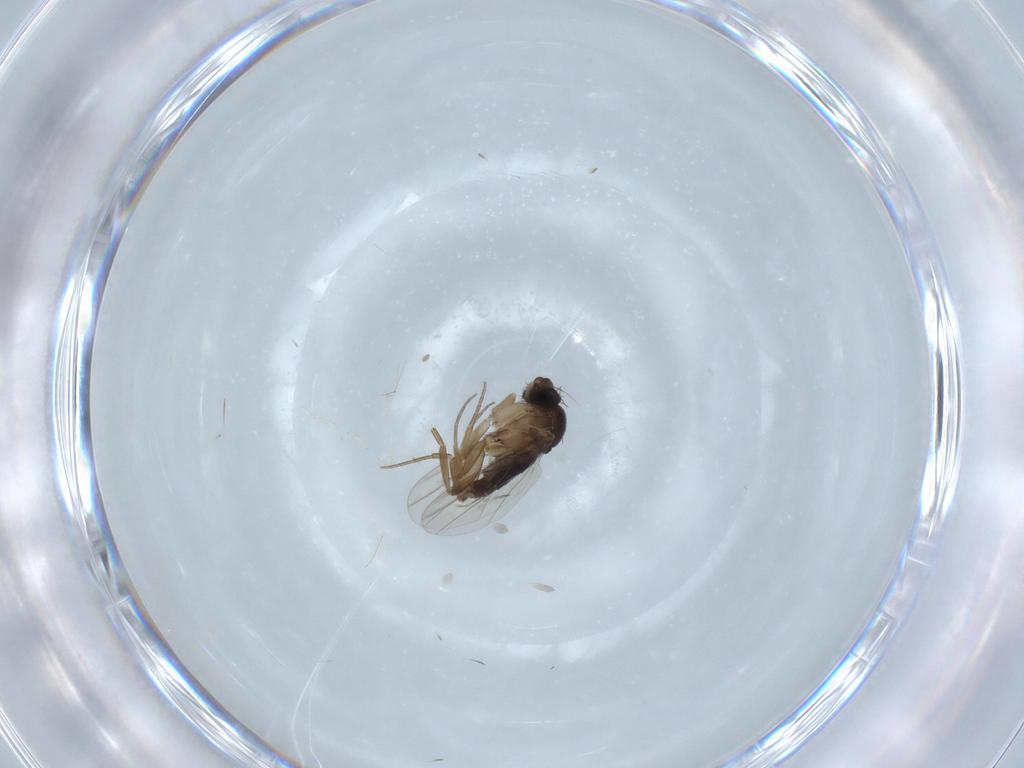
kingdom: Animalia
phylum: Arthropoda
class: Insecta
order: Diptera
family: Phoridae
